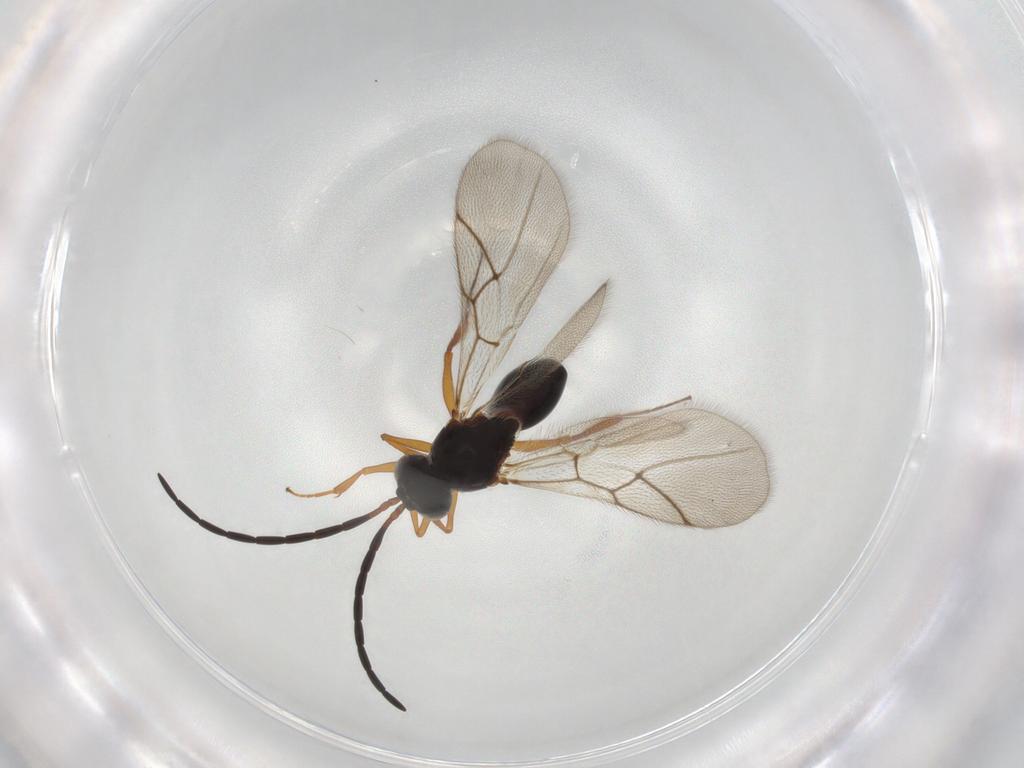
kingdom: Animalia
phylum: Arthropoda
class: Insecta
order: Hymenoptera
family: Figitidae
